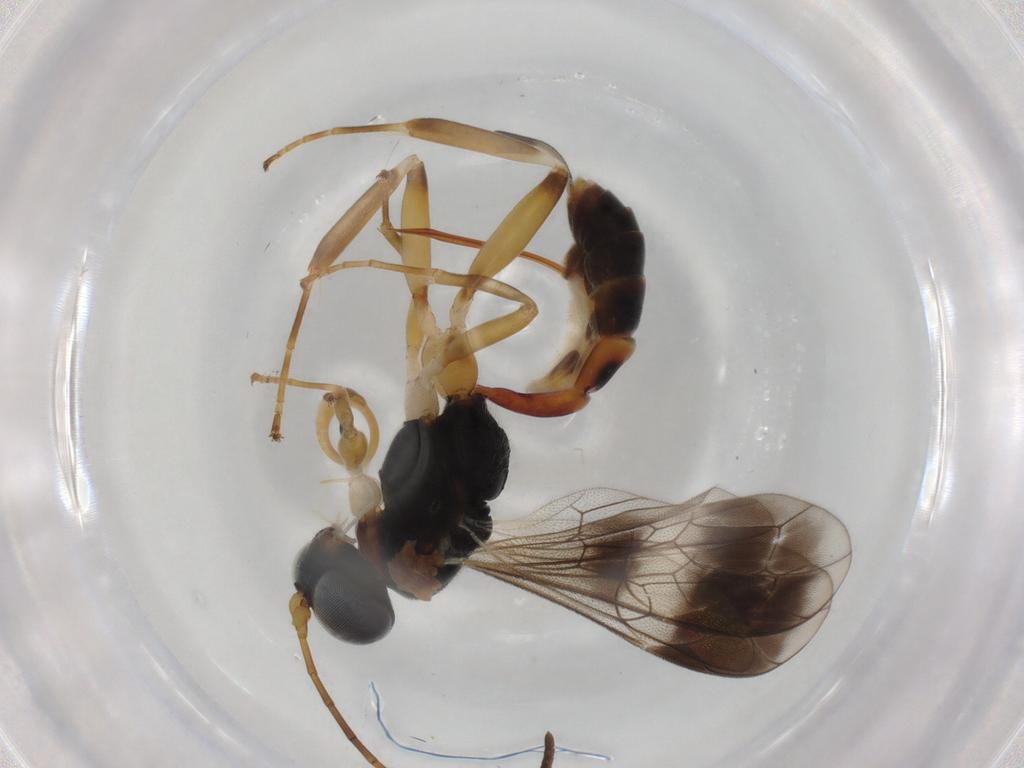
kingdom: Animalia
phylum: Arthropoda
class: Insecta
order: Hymenoptera
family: Ichneumonidae
